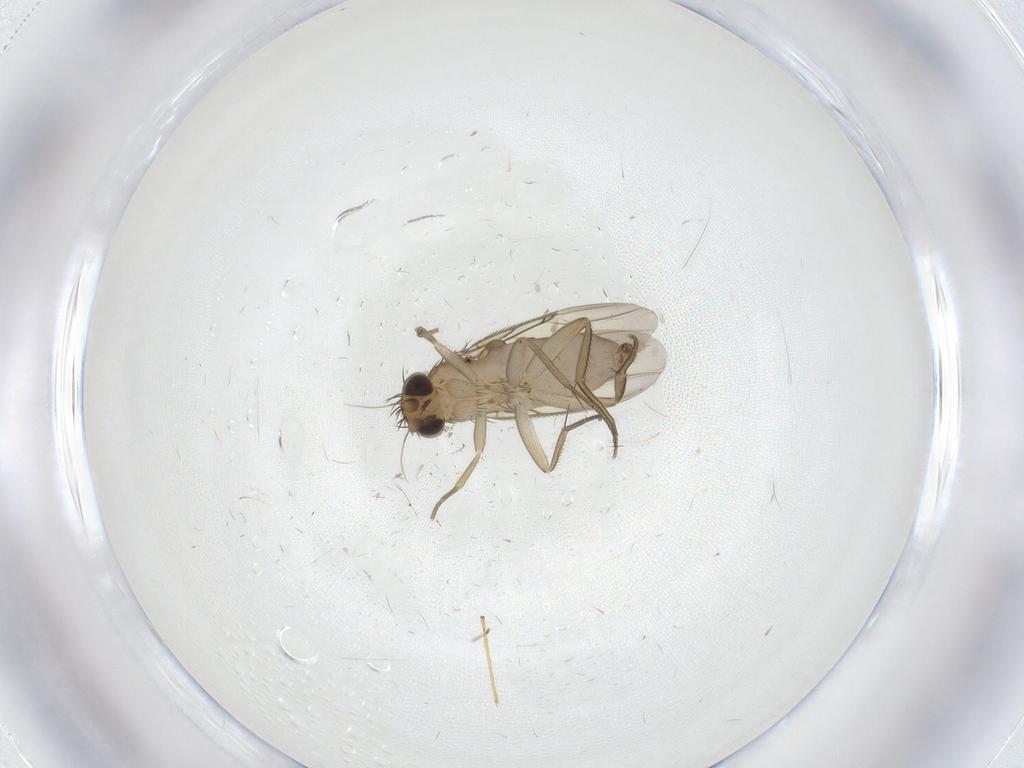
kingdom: Animalia
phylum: Arthropoda
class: Insecta
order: Diptera
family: Phoridae
